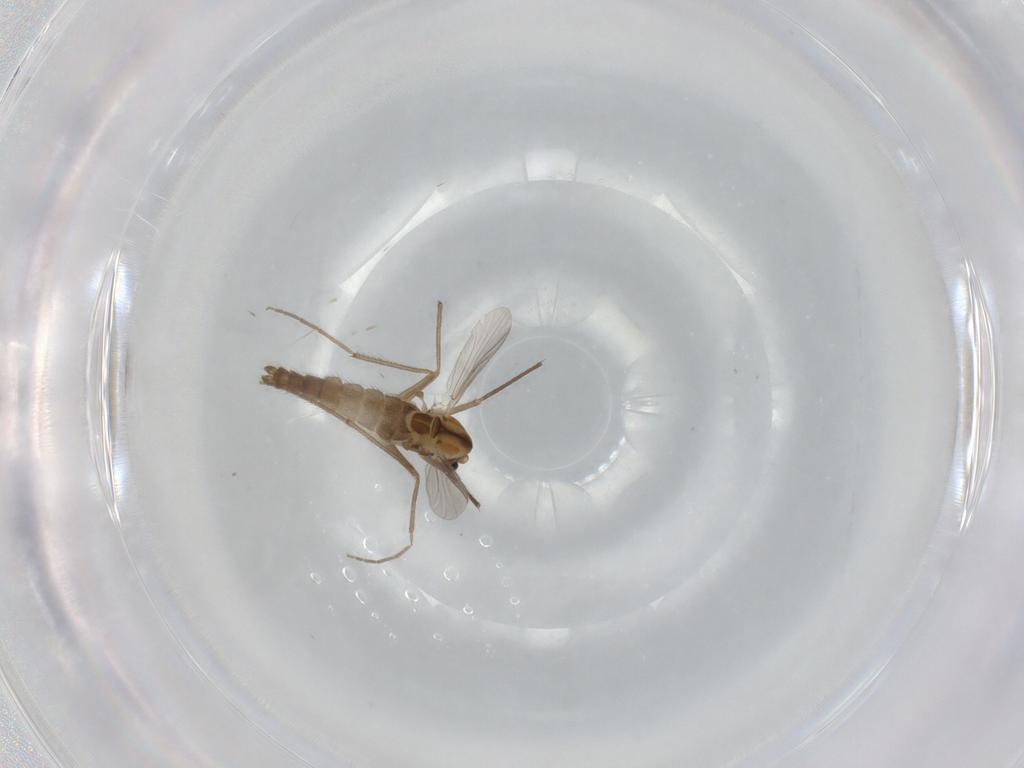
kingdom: Animalia
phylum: Arthropoda
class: Insecta
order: Diptera
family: Chironomidae
